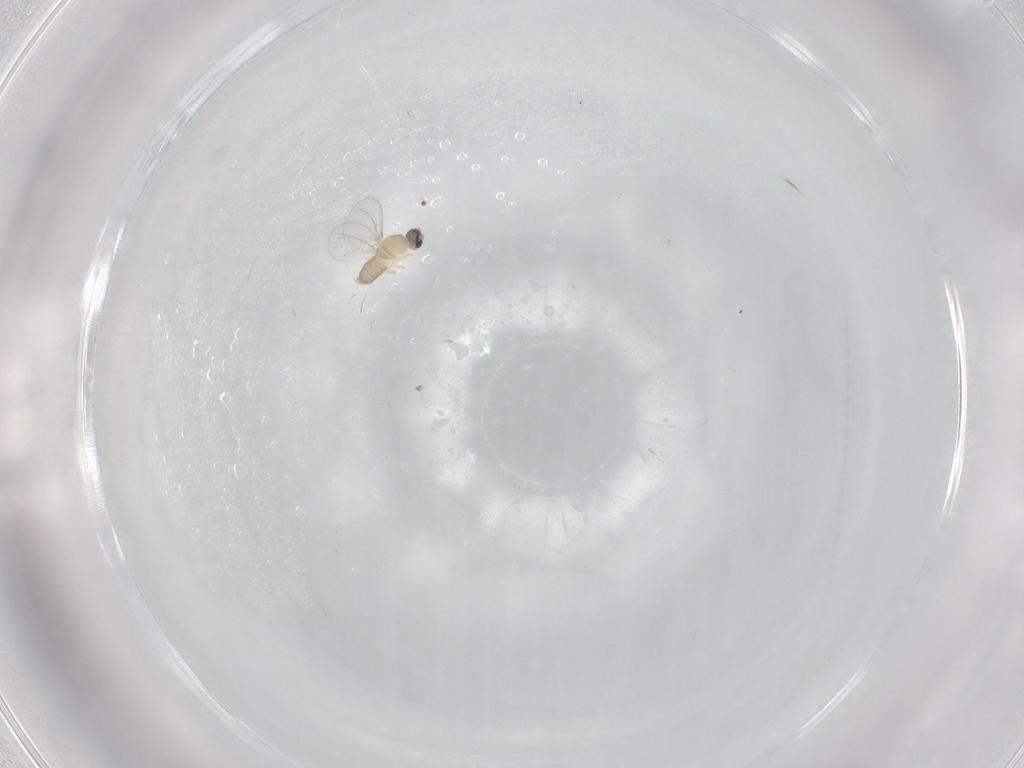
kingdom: Animalia
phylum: Arthropoda
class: Insecta
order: Diptera
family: Cecidomyiidae
